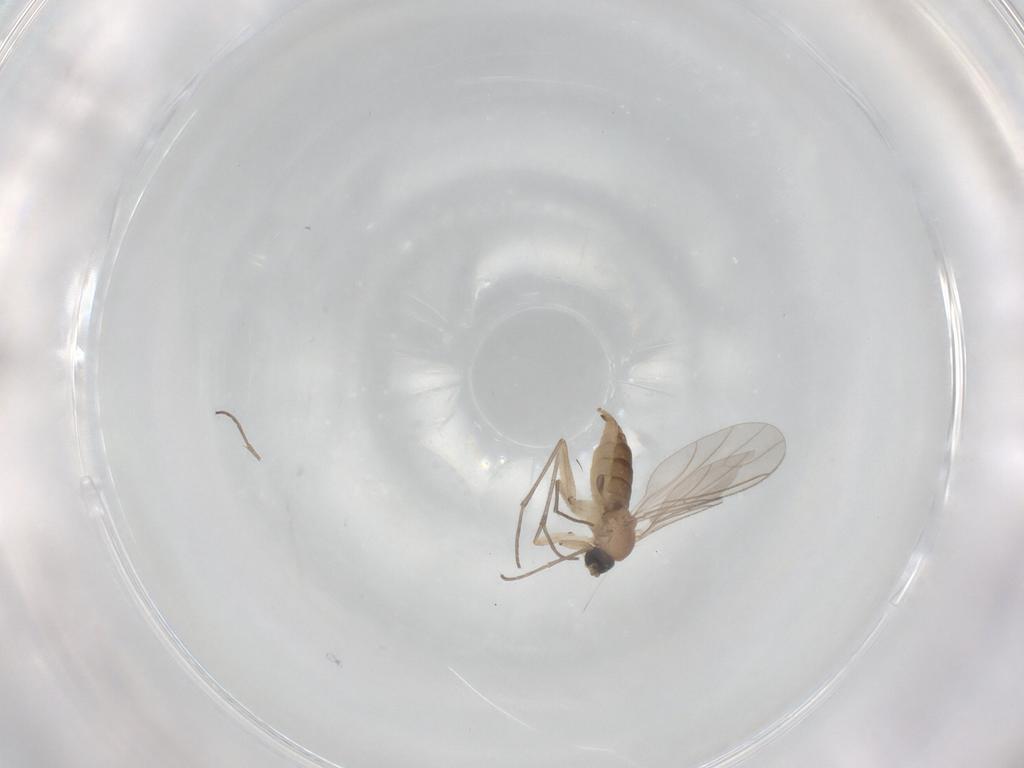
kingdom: Animalia
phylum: Arthropoda
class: Insecta
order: Diptera
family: Sciaridae
